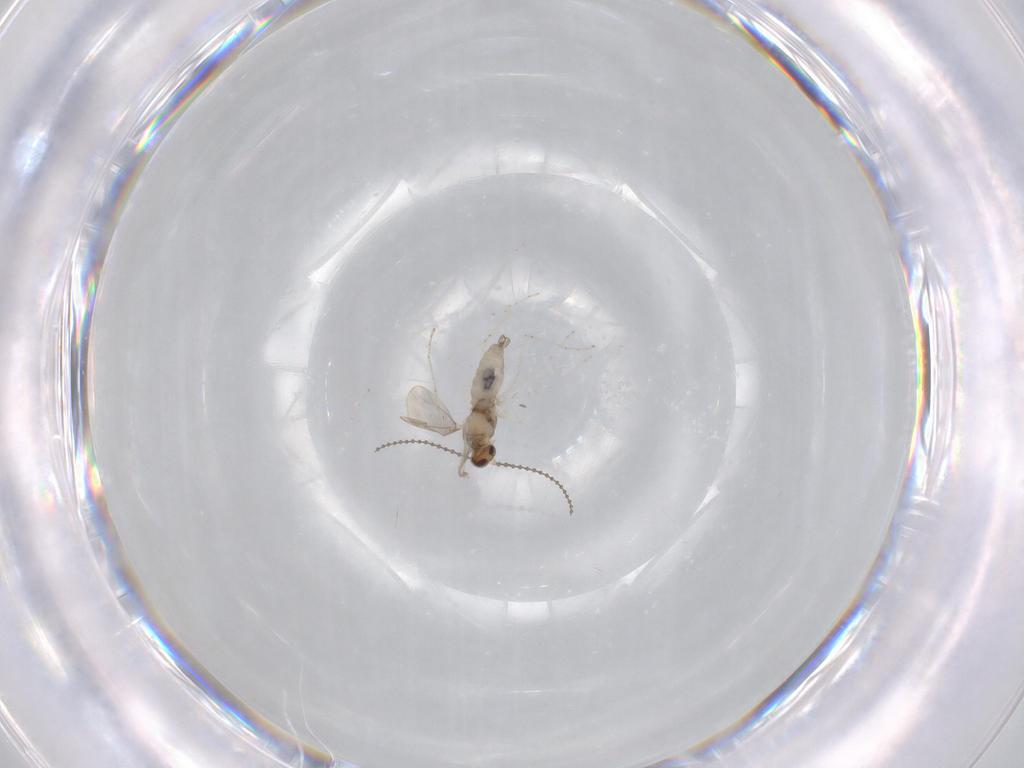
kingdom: Animalia
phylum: Arthropoda
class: Insecta
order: Diptera
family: Cecidomyiidae
